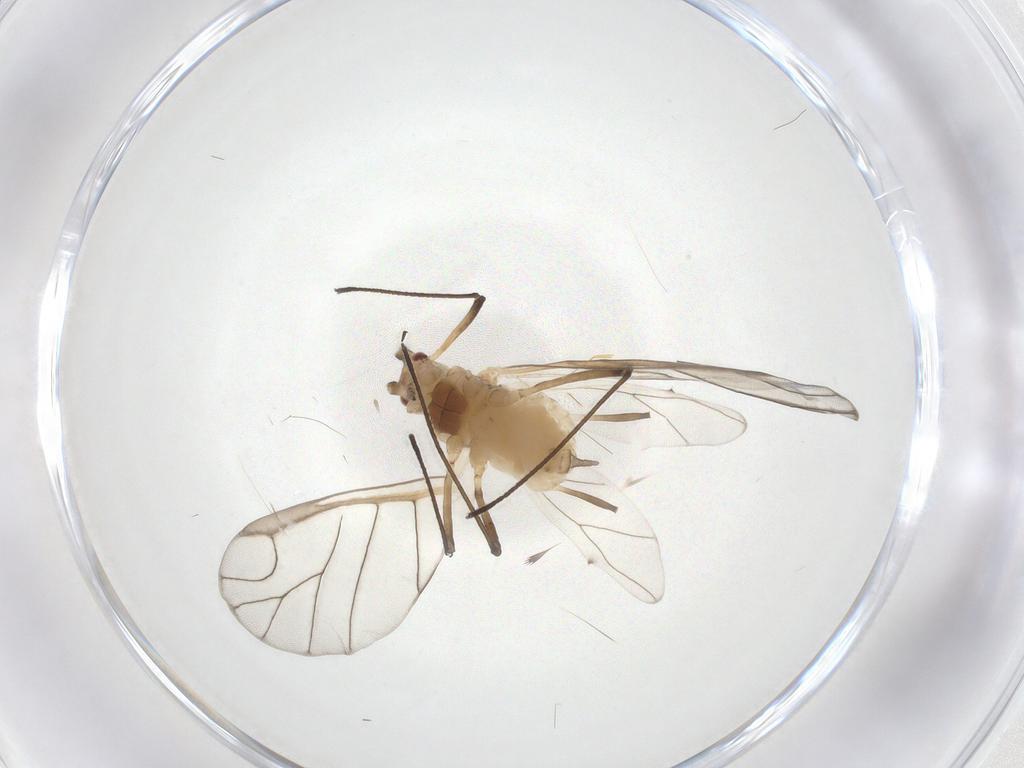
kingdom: Animalia
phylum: Arthropoda
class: Insecta
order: Hemiptera
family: Aphididae
